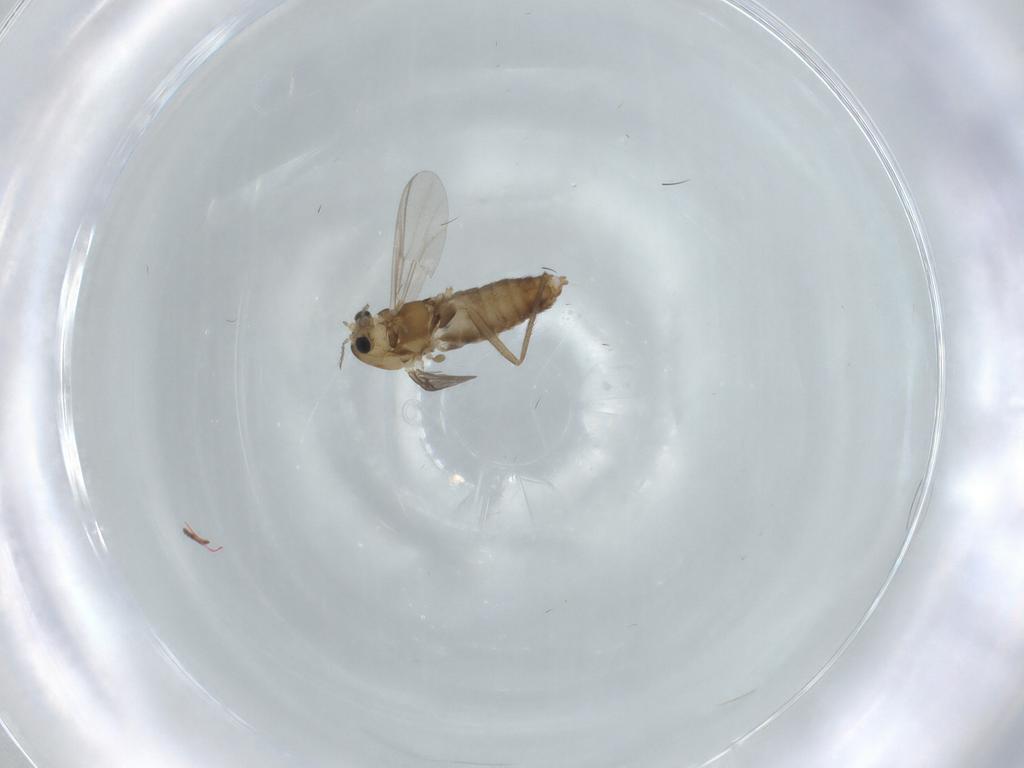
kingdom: Animalia
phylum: Arthropoda
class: Insecta
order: Diptera
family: Chironomidae
